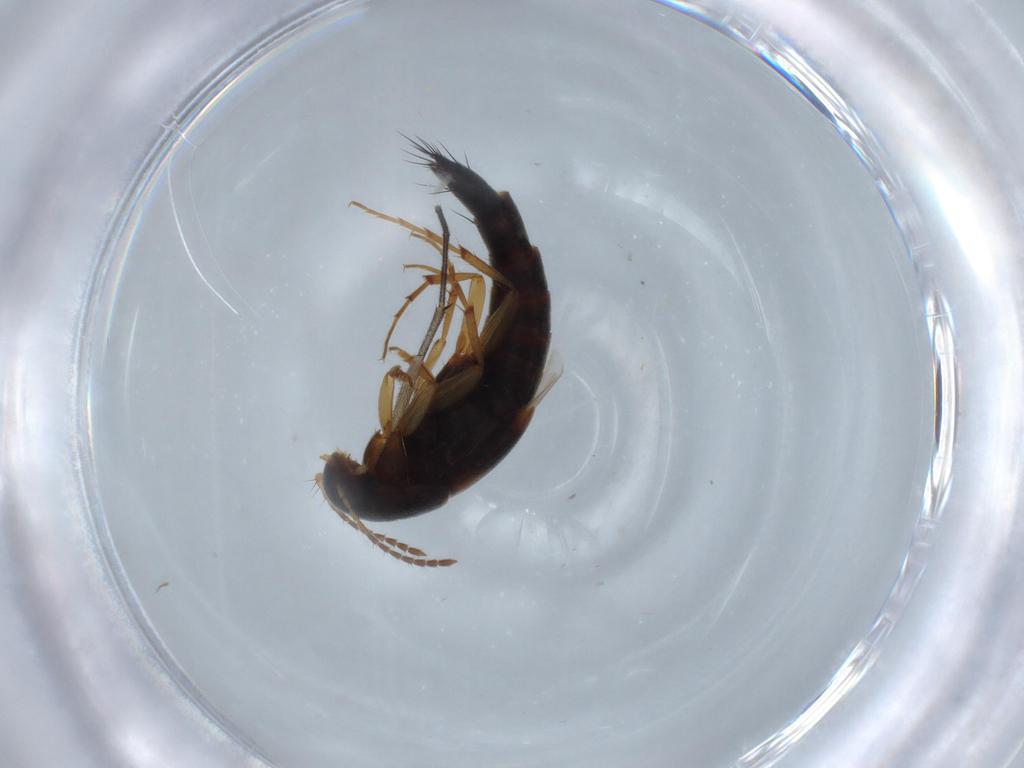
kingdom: Animalia
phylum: Arthropoda
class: Insecta
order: Coleoptera
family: Staphylinidae
